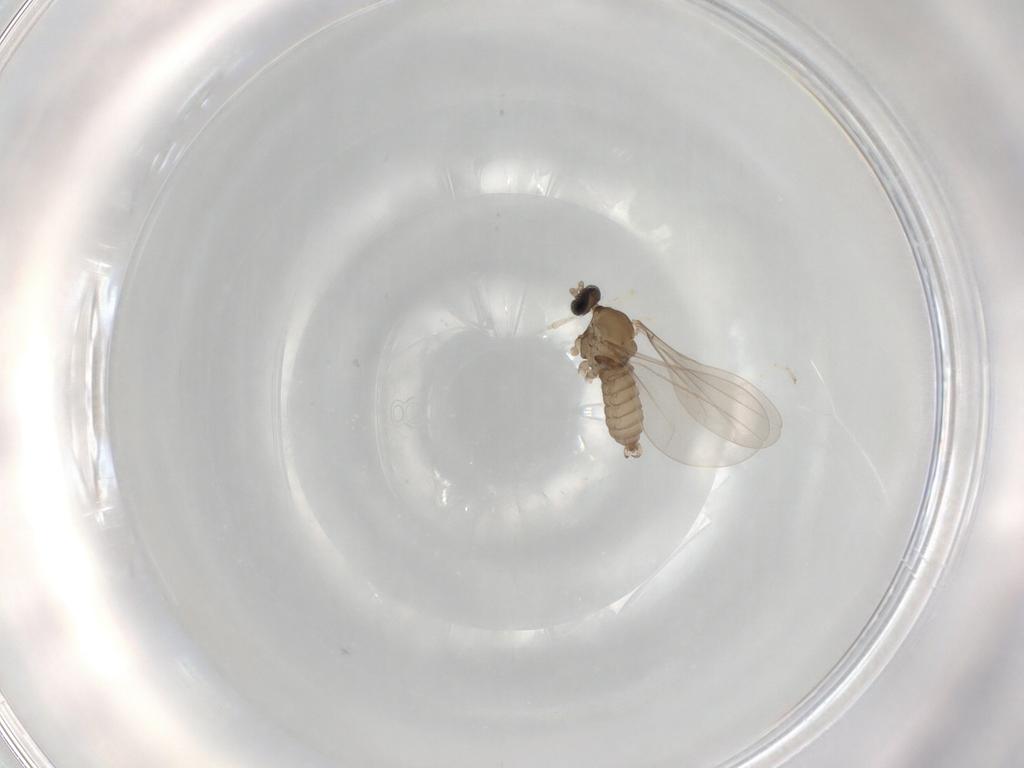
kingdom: Animalia
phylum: Arthropoda
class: Insecta
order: Diptera
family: Cecidomyiidae
